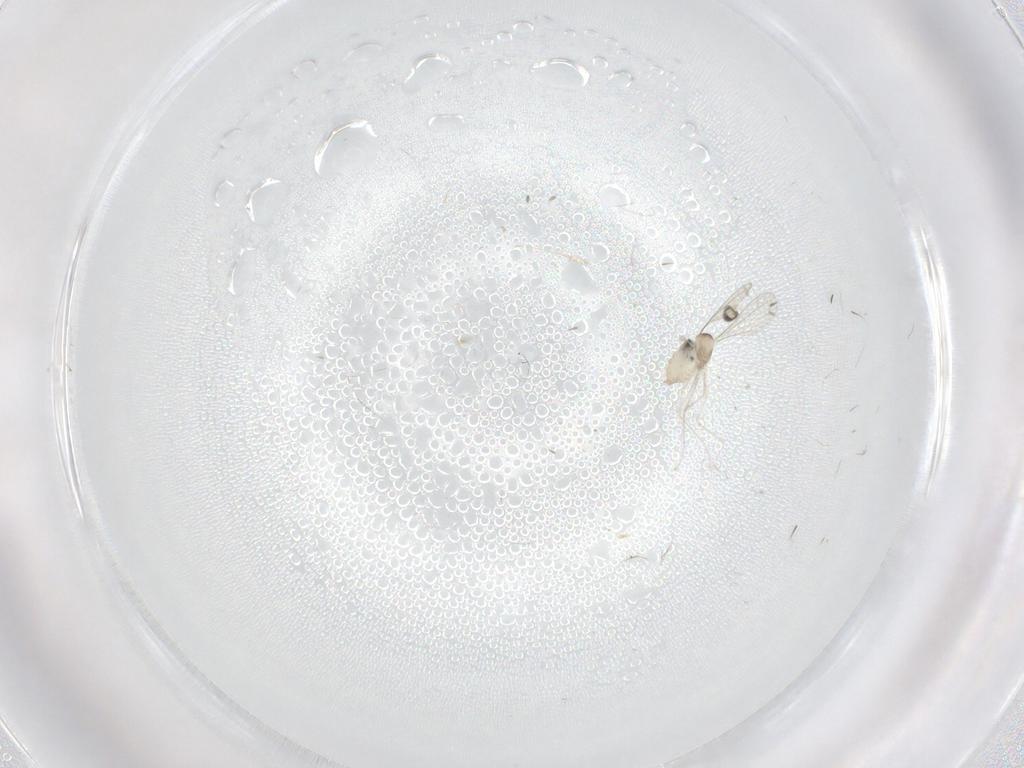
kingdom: Animalia
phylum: Arthropoda
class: Insecta
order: Diptera
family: Cecidomyiidae
